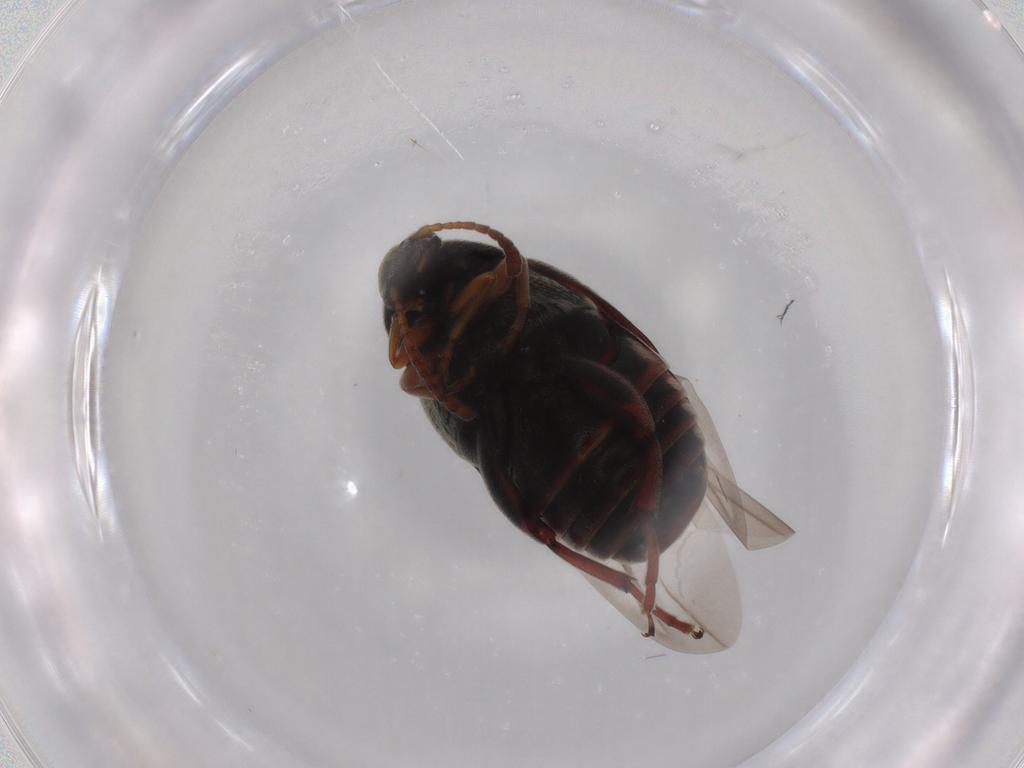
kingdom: Animalia
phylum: Arthropoda
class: Insecta
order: Coleoptera
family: Chrysomelidae
